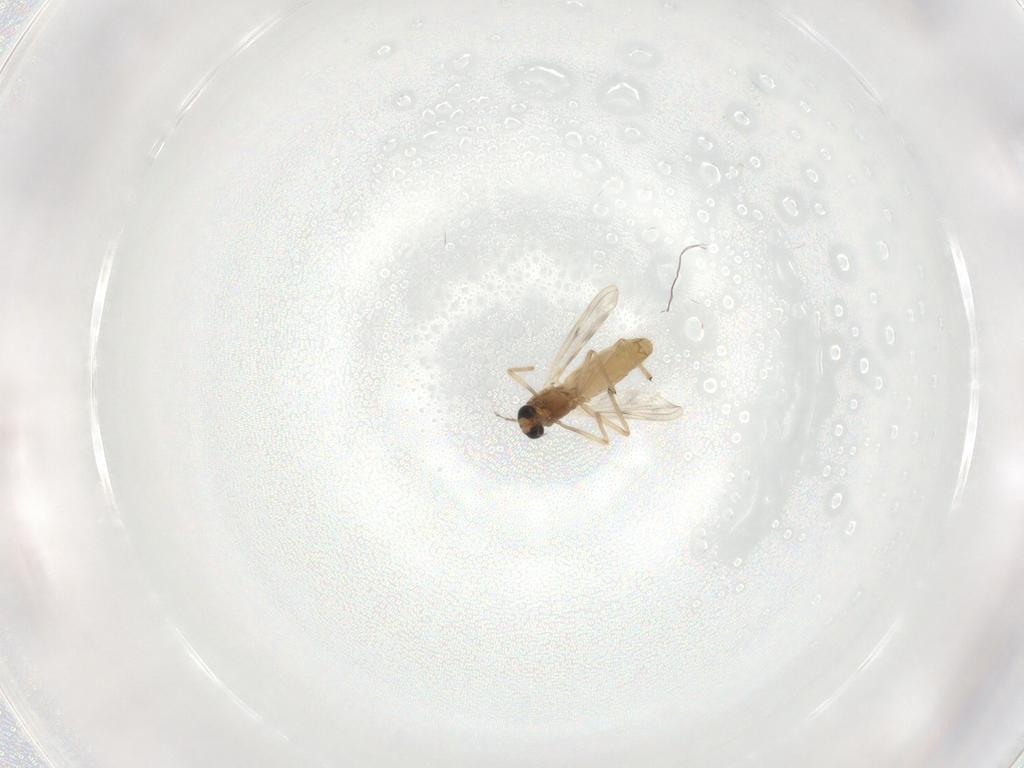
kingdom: Animalia
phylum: Arthropoda
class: Insecta
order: Diptera
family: Chironomidae
